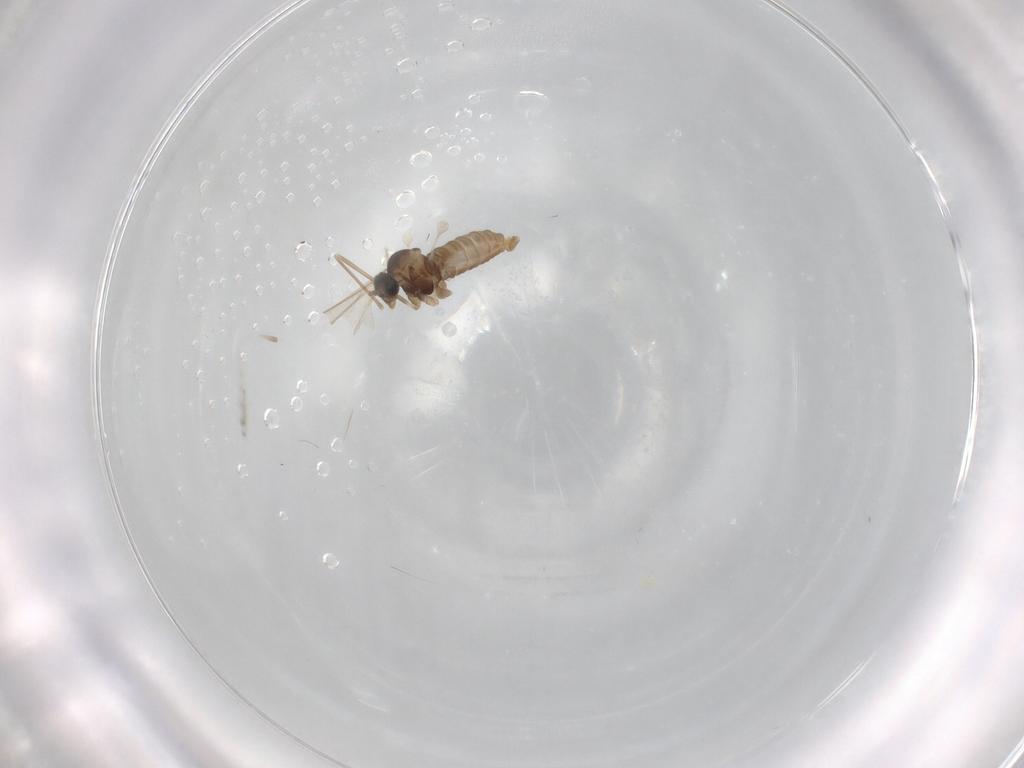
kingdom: Animalia
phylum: Arthropoda
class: Insecta
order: Diptera
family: Cecidomyiidae
